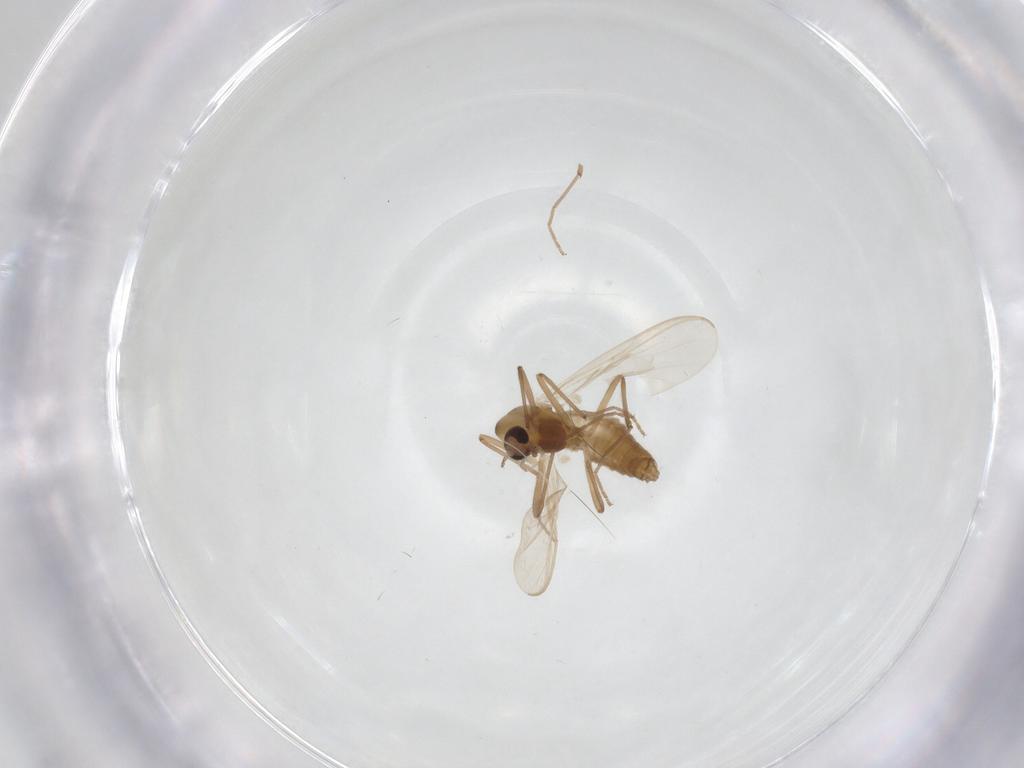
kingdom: Animalia
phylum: Arthropoda
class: Insecta
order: Diptera
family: Chironomidae
